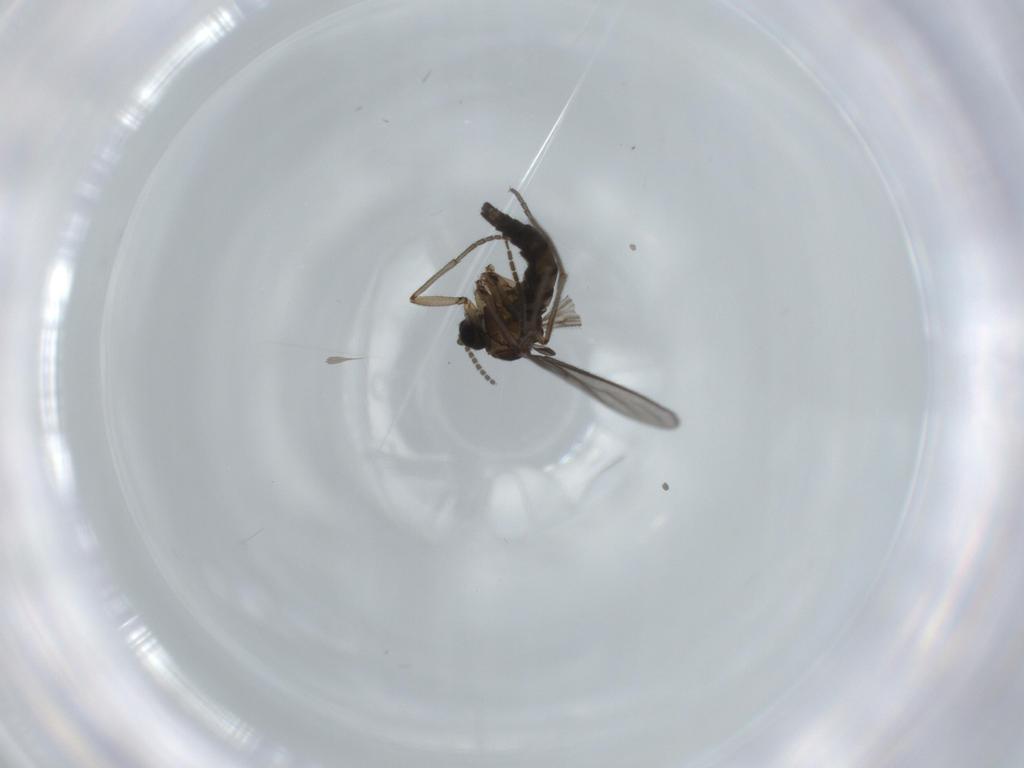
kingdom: Animalia
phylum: Arthropoda
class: Insecta
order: Diptera
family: Sciaridae
